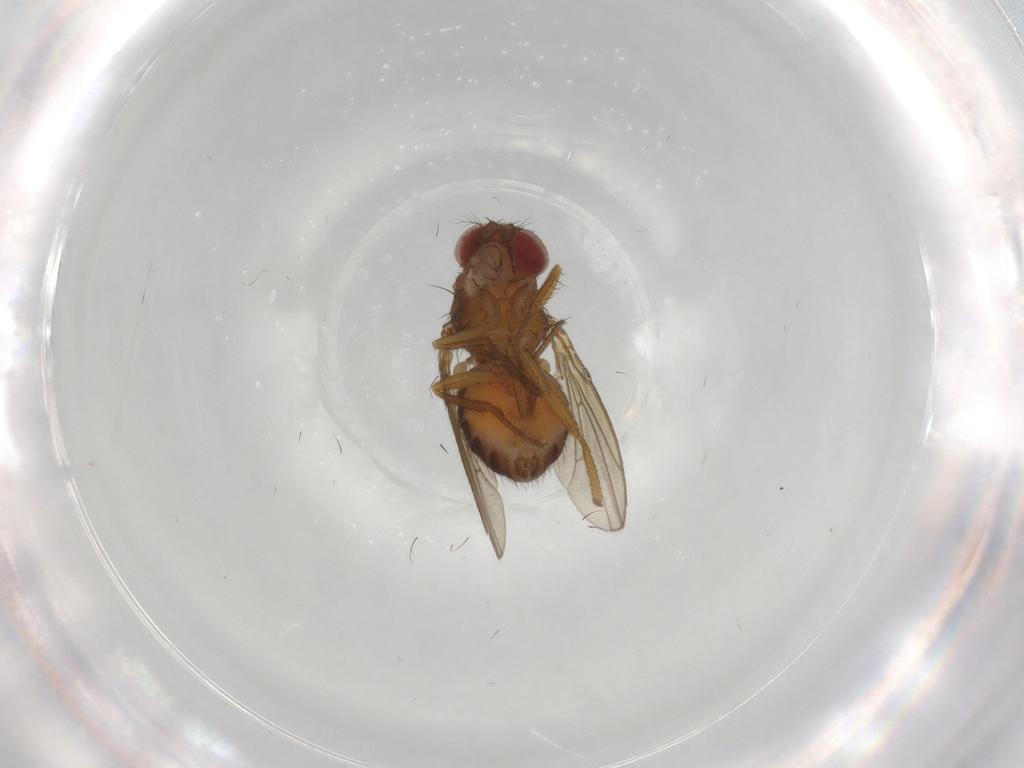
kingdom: Animalia
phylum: Arthropoda
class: Insecta
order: Diptera
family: Drosophilidae
